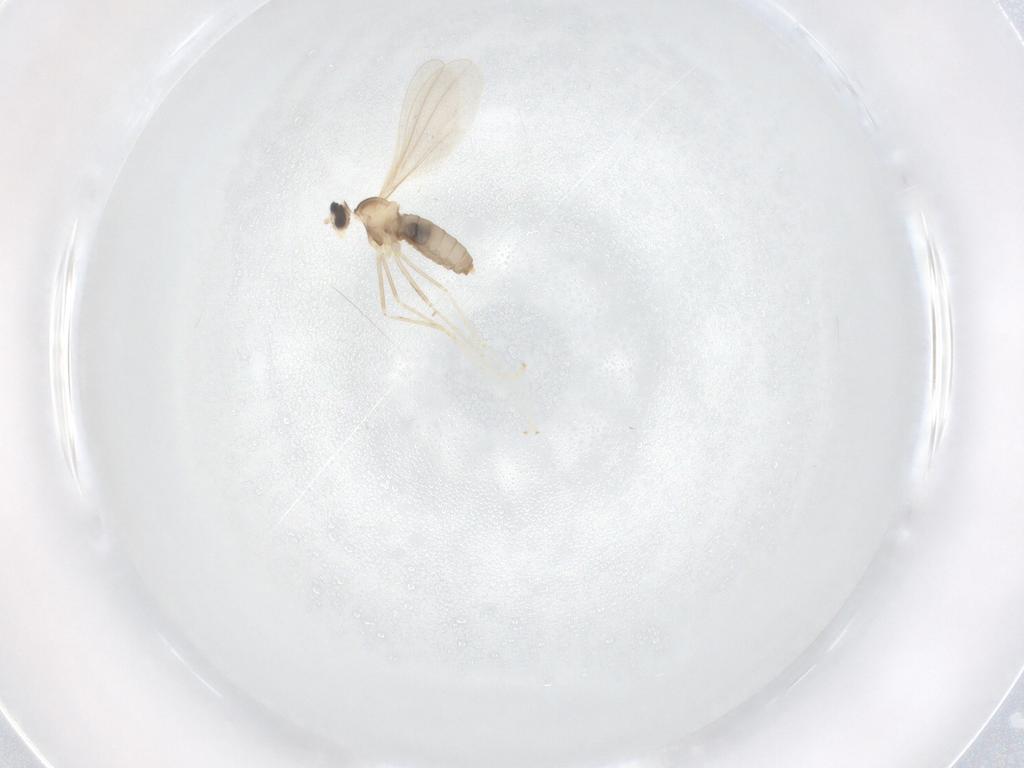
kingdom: Animalia
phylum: Arthropoda
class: Insecta
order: Diptera
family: Cecidomyiidae
